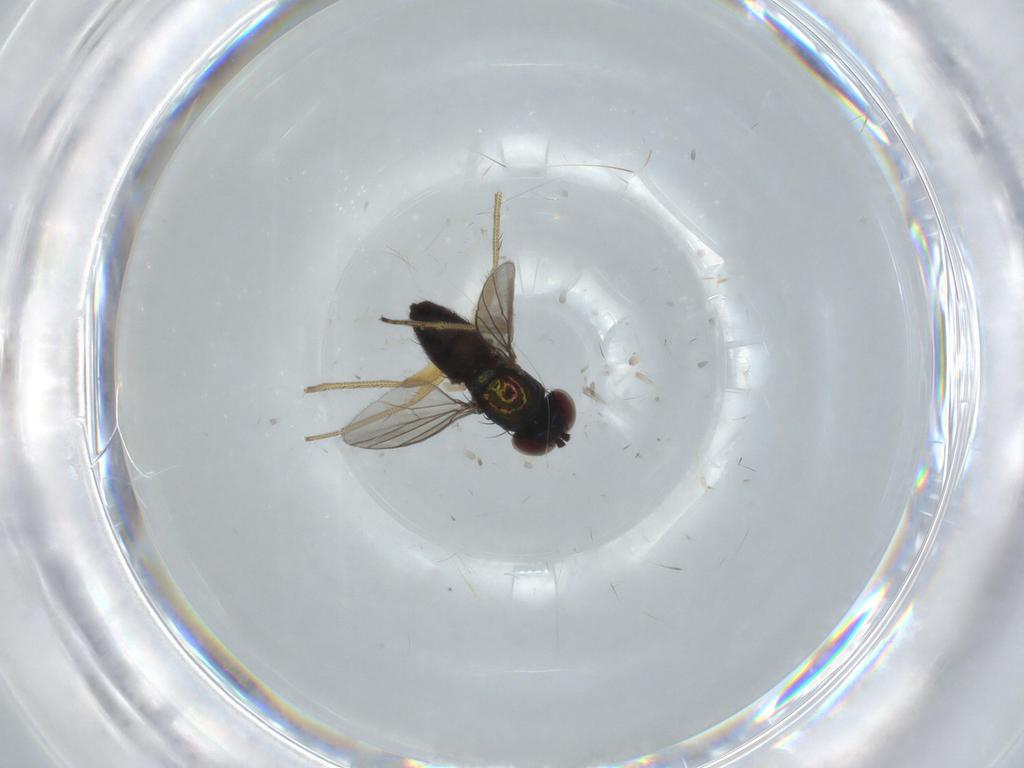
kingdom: Animalia
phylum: Arthropoda
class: Insecta
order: Diptera
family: Dolichopodidae
